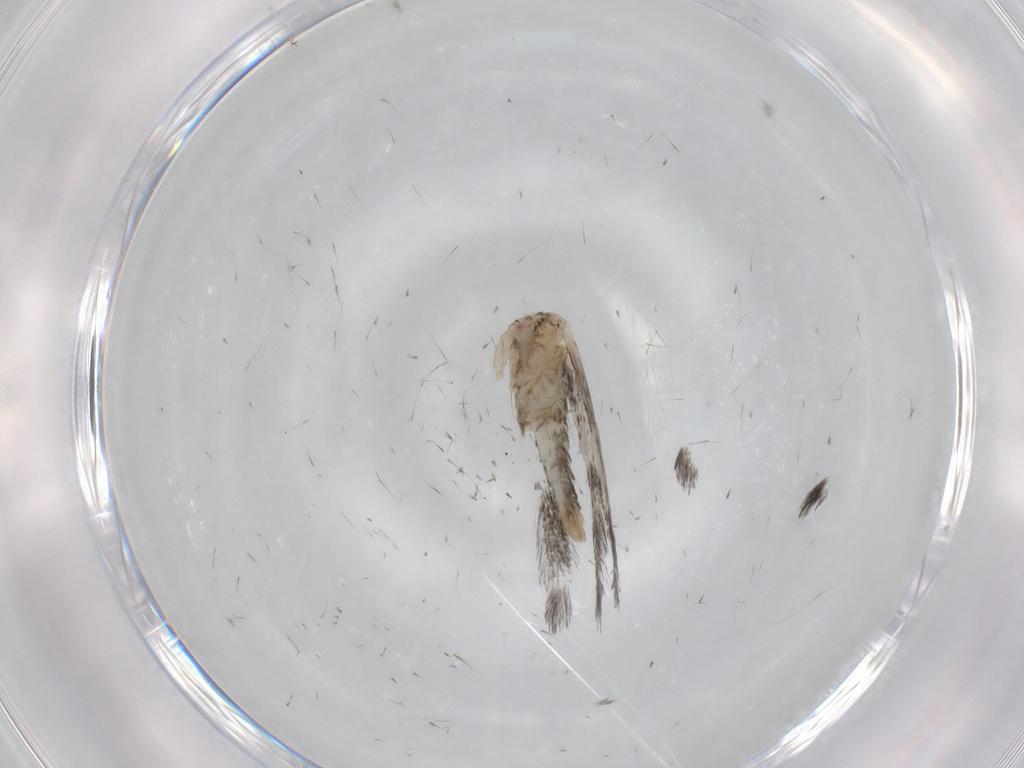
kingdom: Animalia
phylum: Arthropoda
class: Insecta
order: Lepidoptera
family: Tineidae
